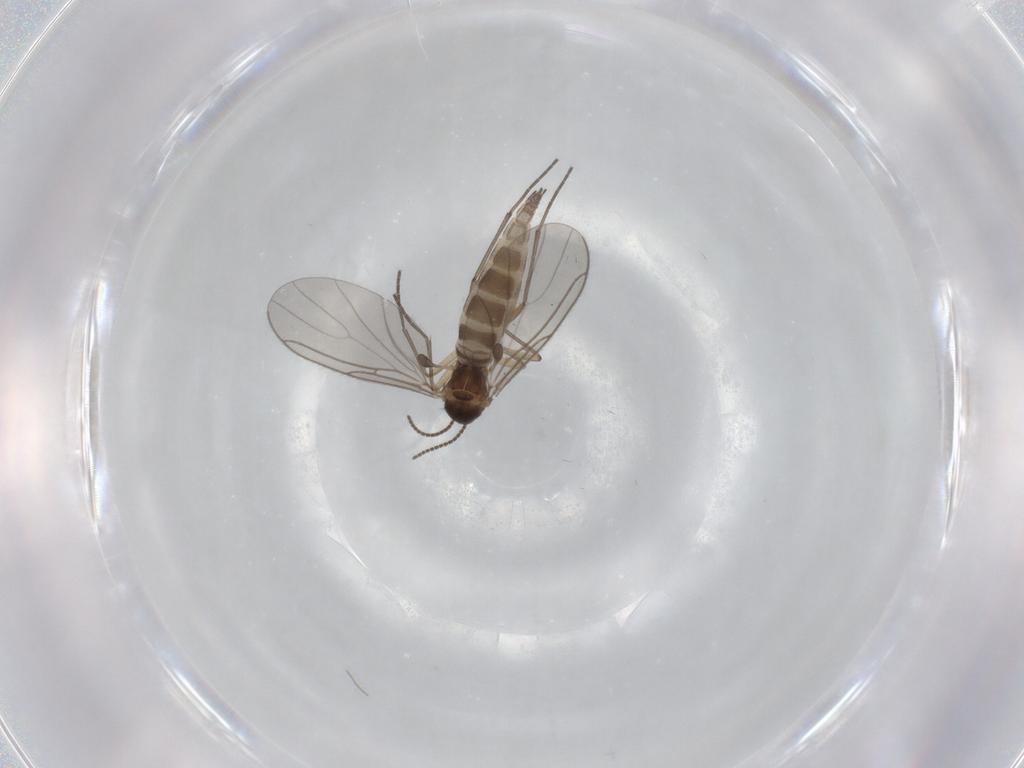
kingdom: Animalia
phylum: Arthropoda
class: Insecta
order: Diptera
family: Sciaridae
